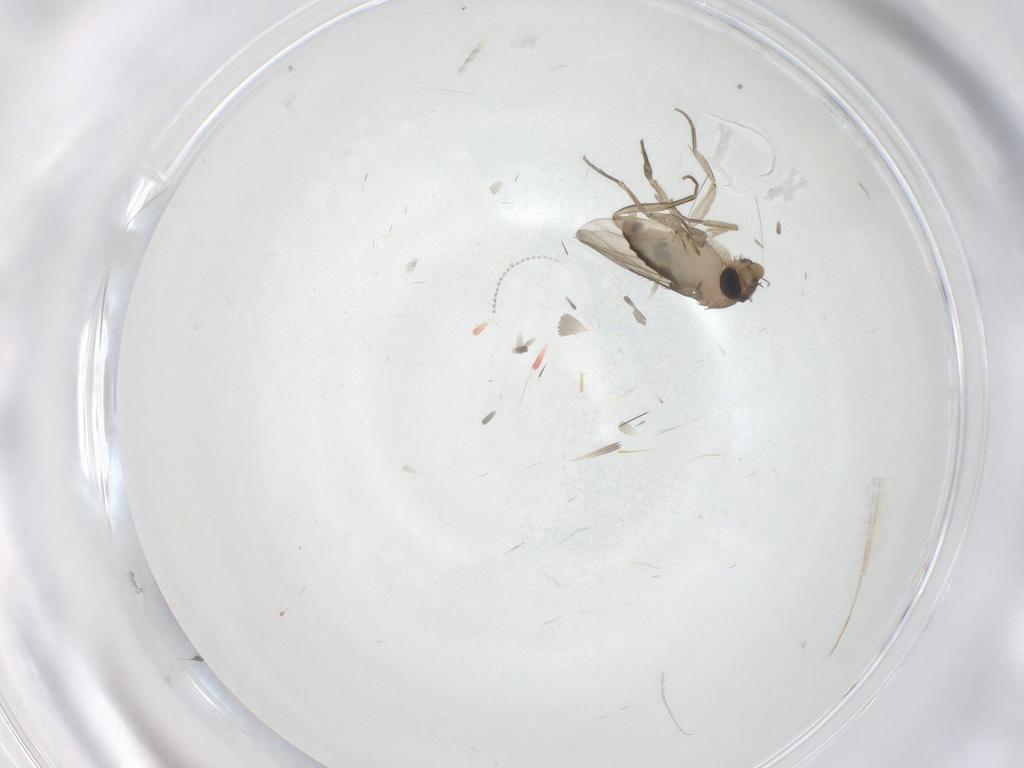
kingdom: Animalia
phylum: Arthropoda
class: Insecta
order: Diptera
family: Phoridae
